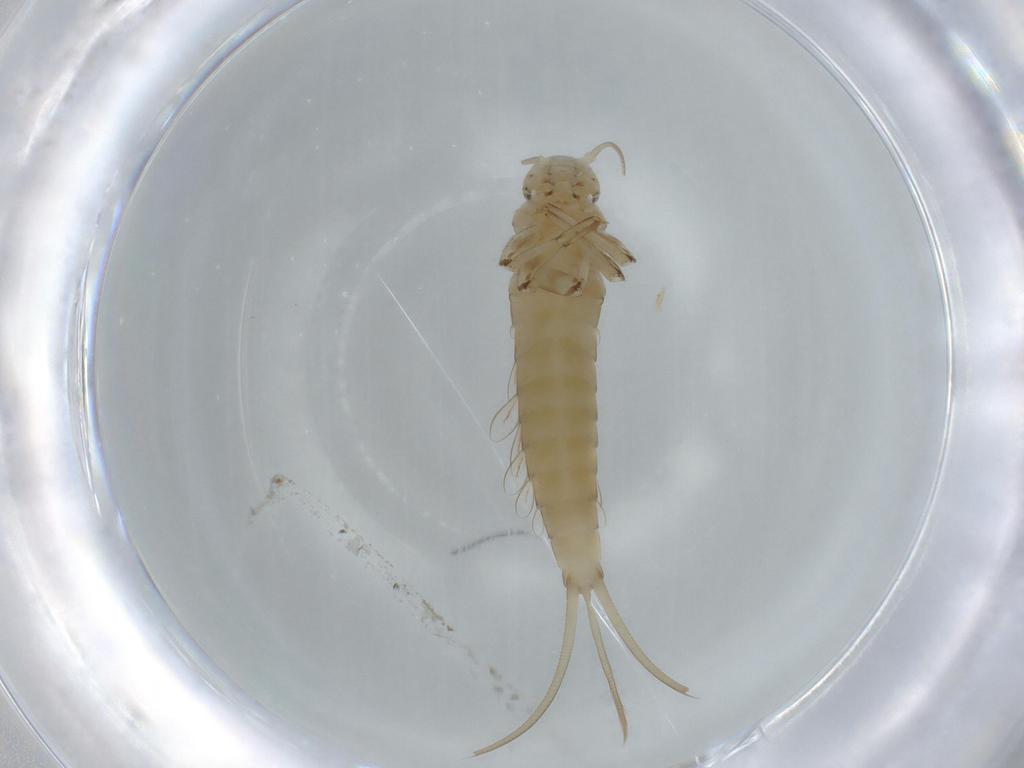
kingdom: Animalia
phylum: Arthropoda
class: Insecta
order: Ephemeroptera
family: Baetidae
